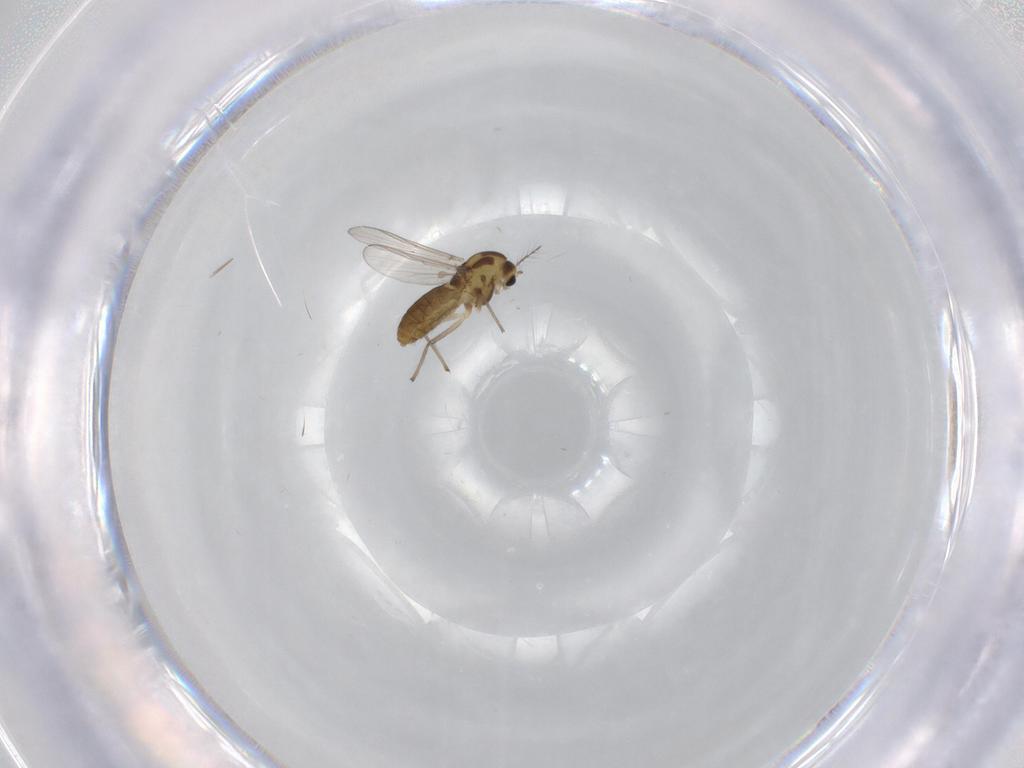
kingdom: Animalia
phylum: Arthropoda
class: Insecta
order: Diptera
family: Chironomidae
